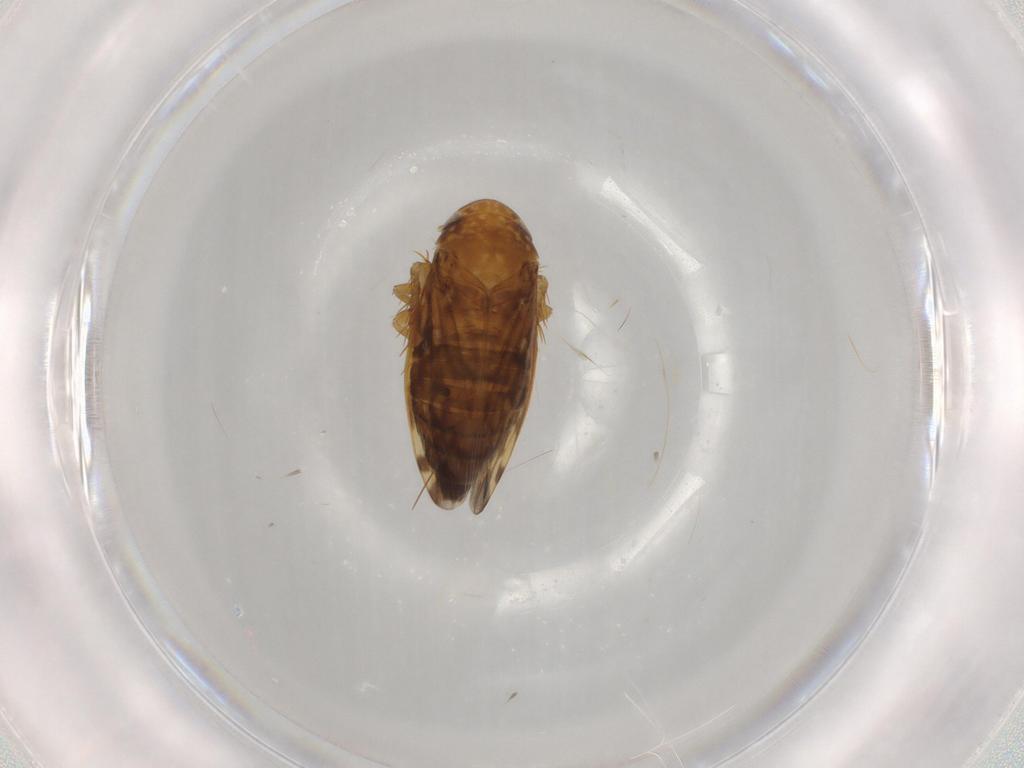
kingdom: Animalia
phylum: Arthropoda
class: Insecta
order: Hemiptera
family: Cicadellidae
